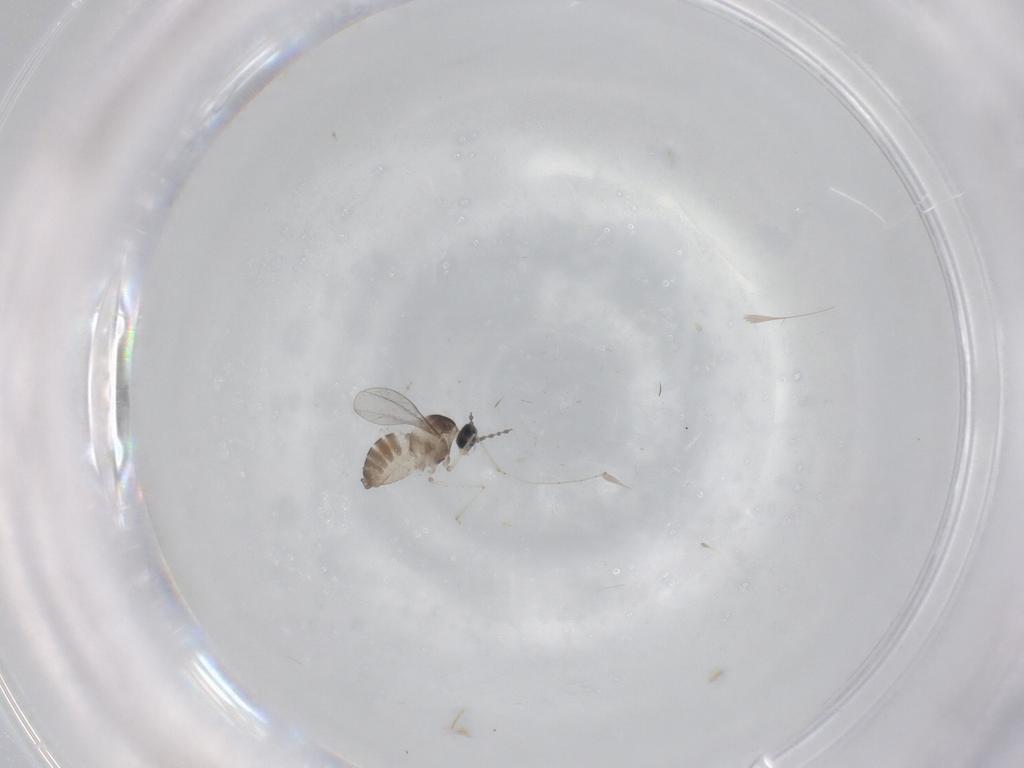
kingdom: Animalia
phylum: Arthropoda
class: Insecta
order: Diptera
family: Cecidomyiidae
